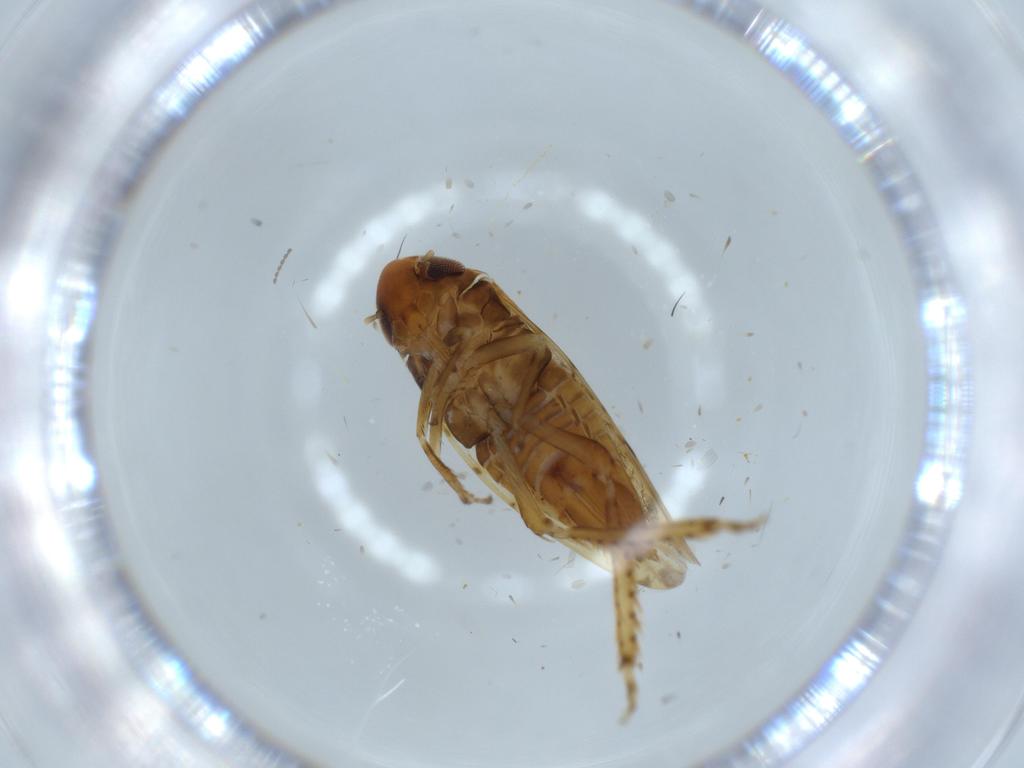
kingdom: Animalia
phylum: Arthropoda
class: Insecta
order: Hemiptera
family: Cicadellidae
